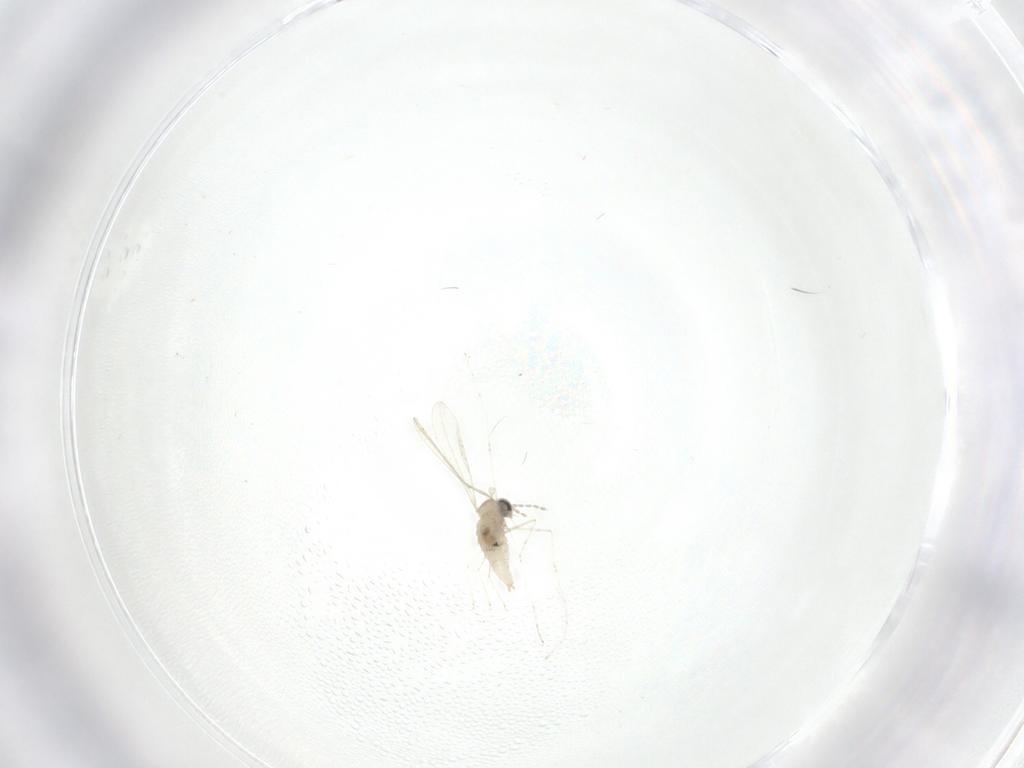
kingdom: Animalia
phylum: Arthropoda
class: Insecta
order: Diptera
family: Cecidomyiidae
